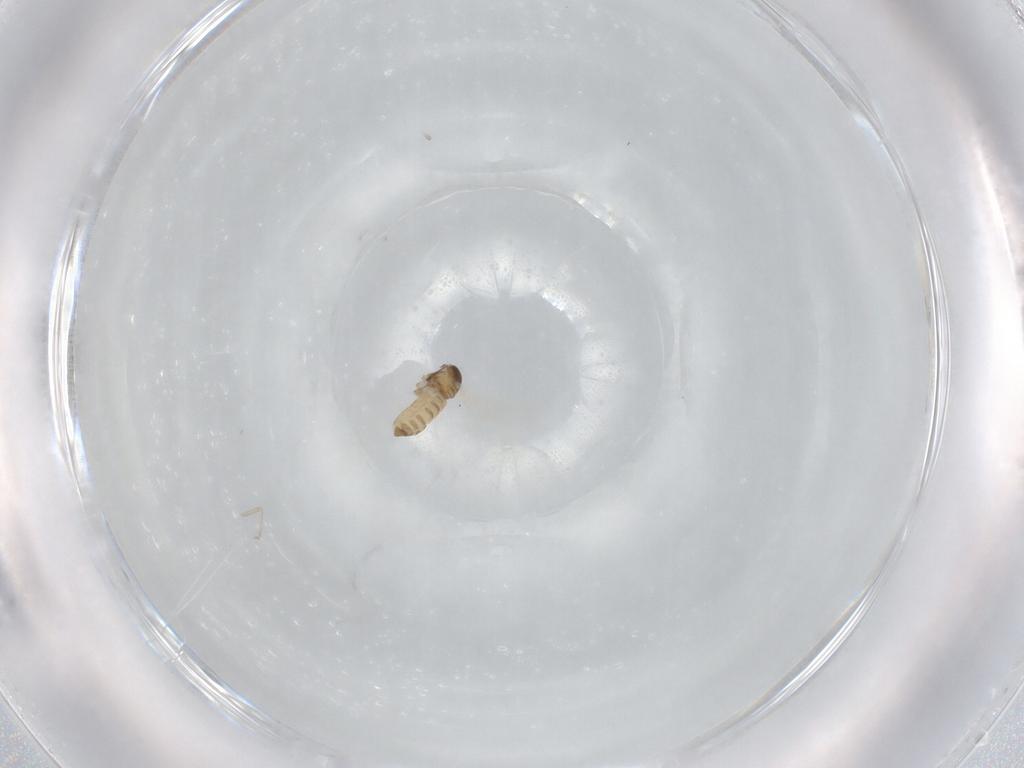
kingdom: Animalia
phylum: Arthropoda
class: Insecta
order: Diptera
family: Cecidomyiidae
